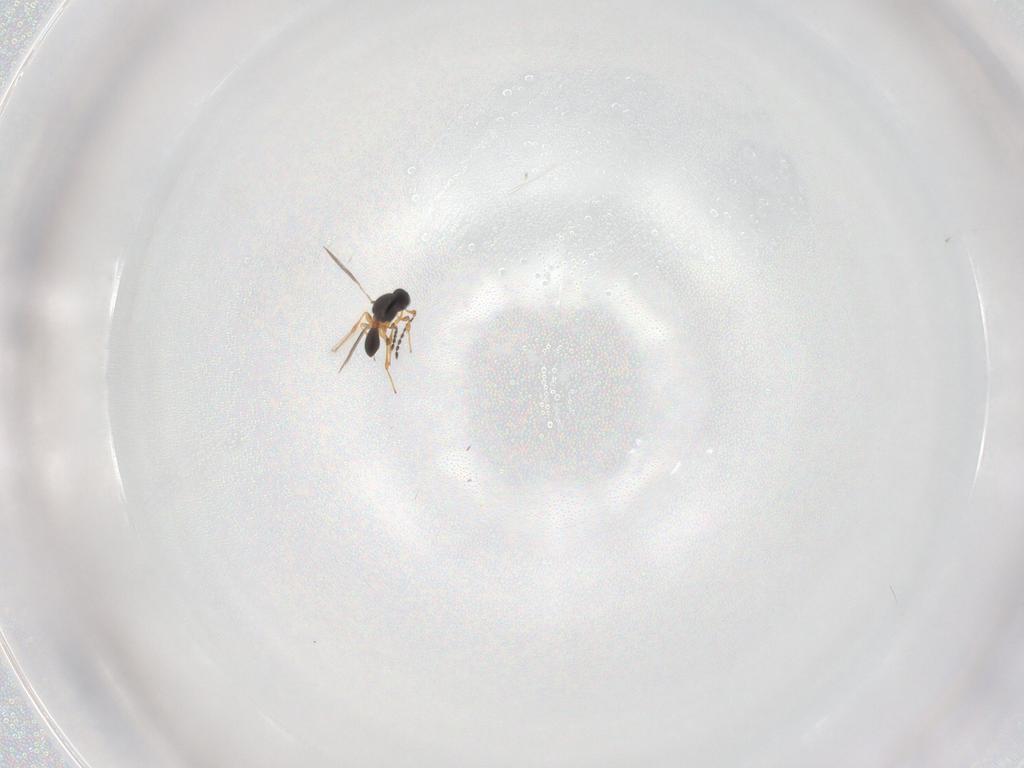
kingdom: Animalia
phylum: Arthropoda
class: Insecta
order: Hymenoptera
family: Platygastridae
